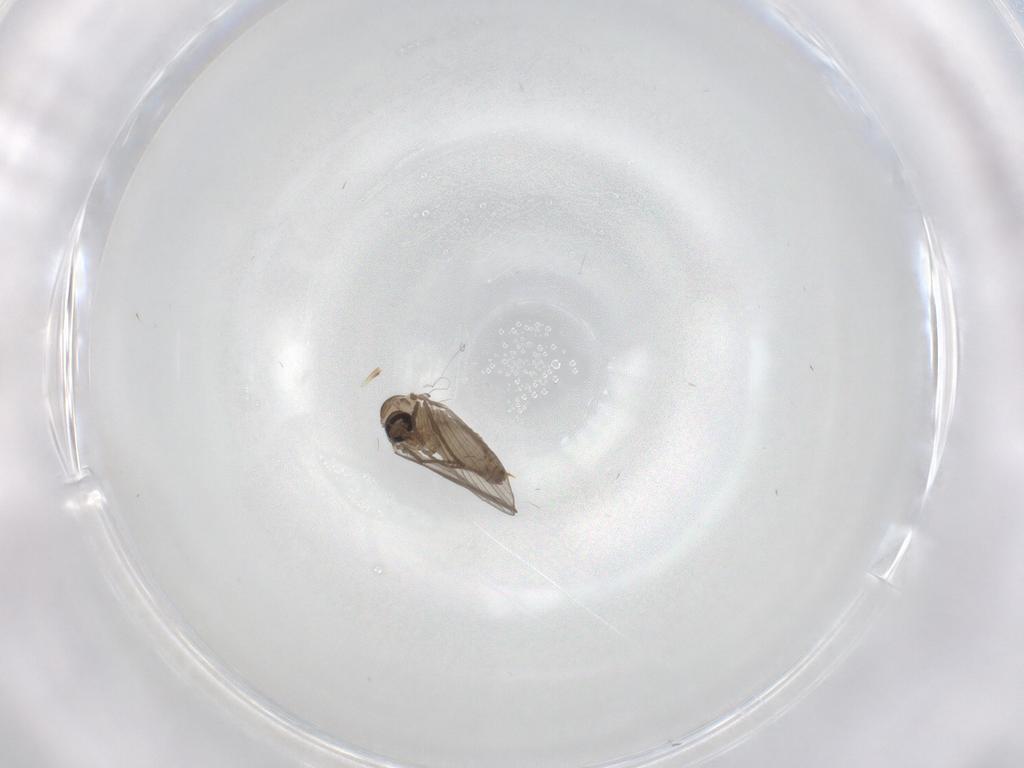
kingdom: Animalia
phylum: Arthropoda
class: Insecta
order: Diptera
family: Psychodidae
